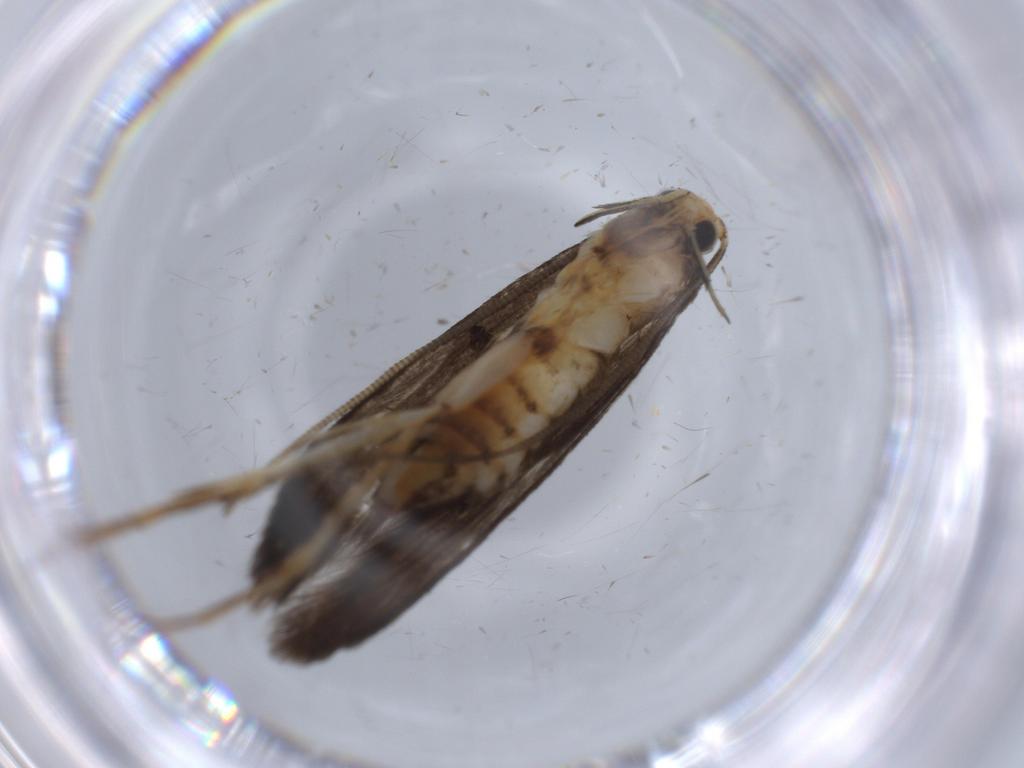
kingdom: Animalia
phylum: Arthropoda
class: Insecta
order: Lepidoptera
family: Tineidae
